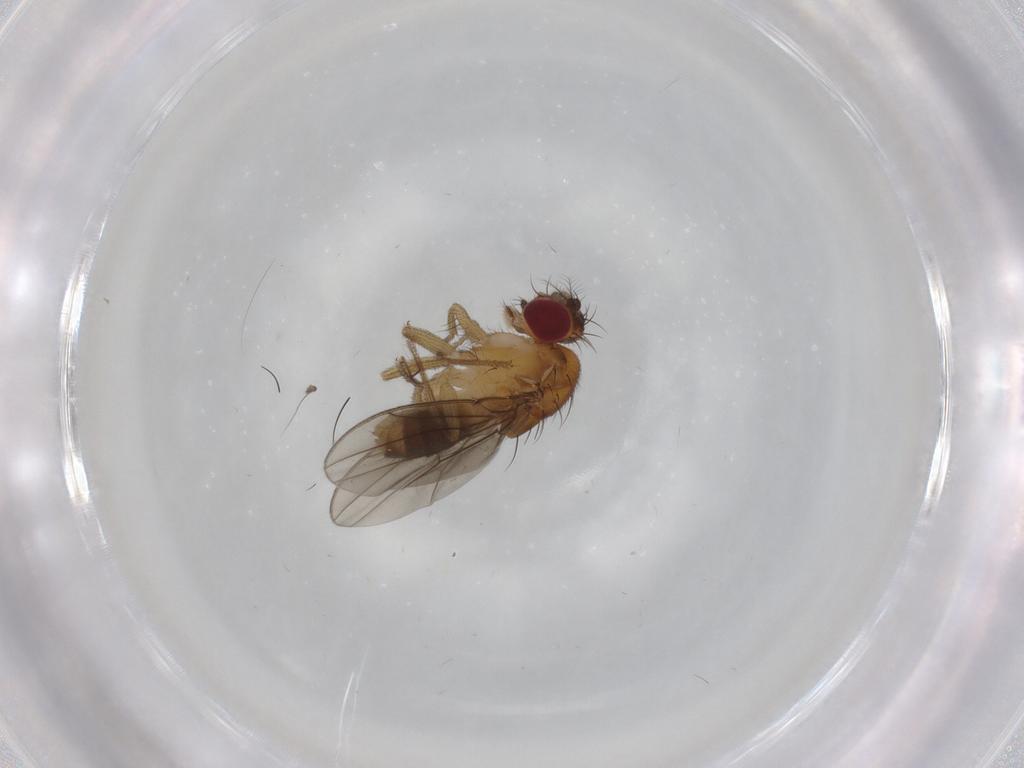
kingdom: Animalia
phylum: Arthropoda
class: Insecta
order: Diptera
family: Drosophilidae
